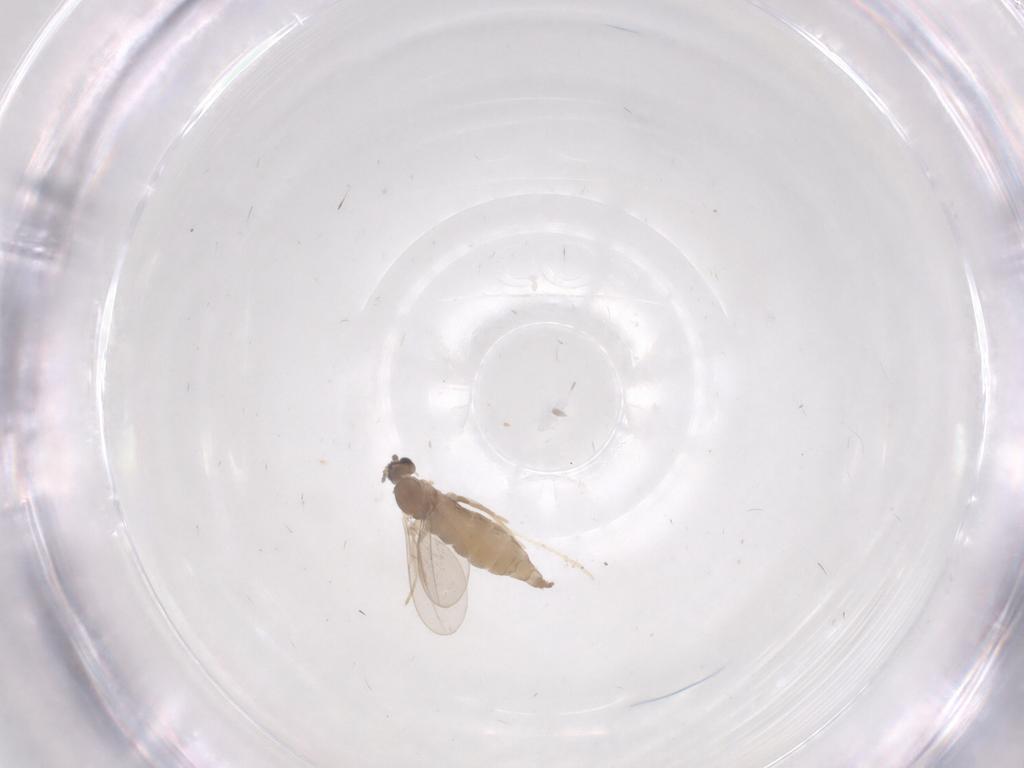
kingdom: Animalia
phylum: Arthropoda
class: Insecta
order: Diptera
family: Cecidomyiidae
